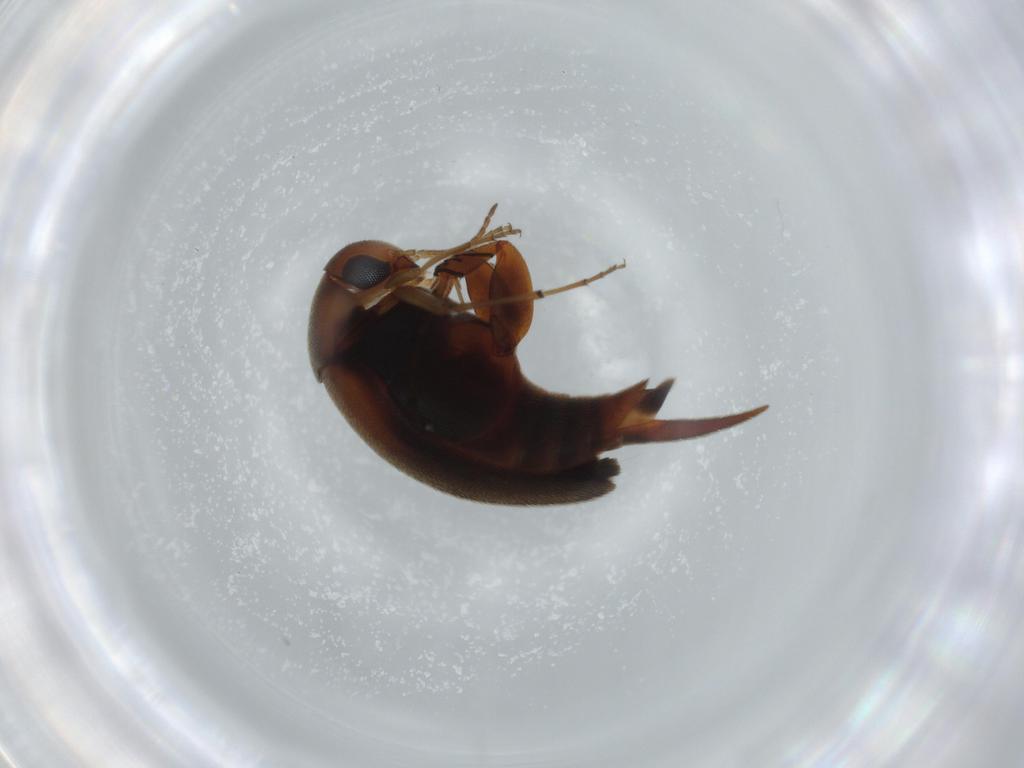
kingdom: Animalia
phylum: Arthropoda
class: Insecta
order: Coleoptera
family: Mordellidae
